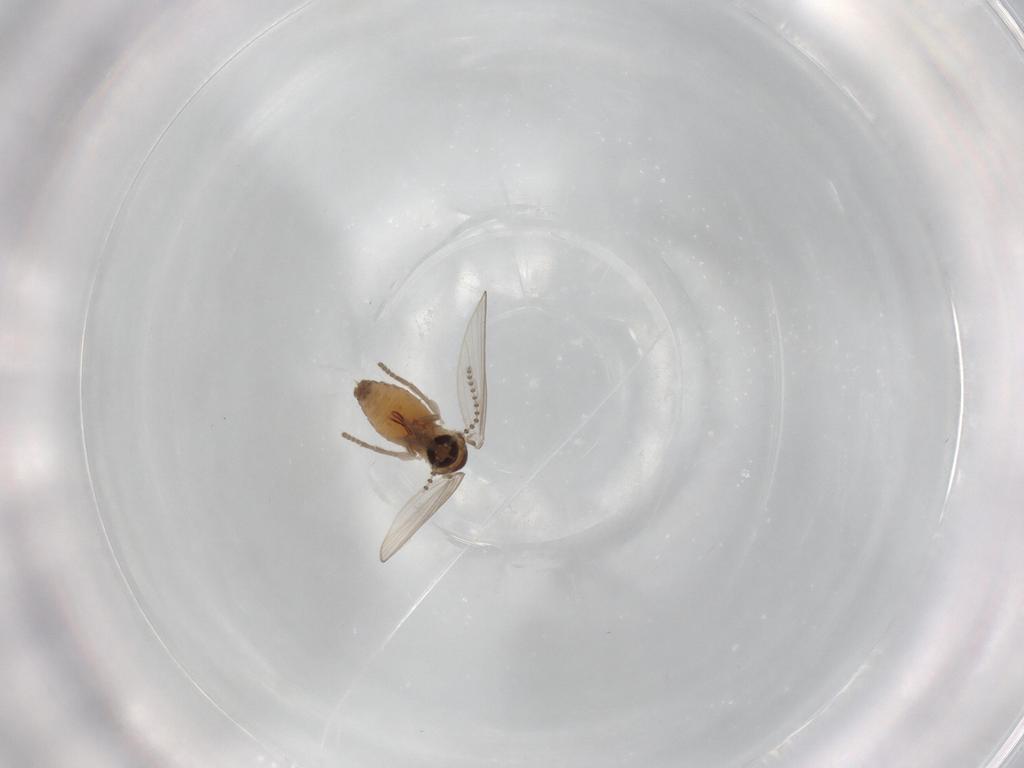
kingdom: Animalia
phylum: Arthropoda
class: Insecta
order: Diptera
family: Psychodidae
